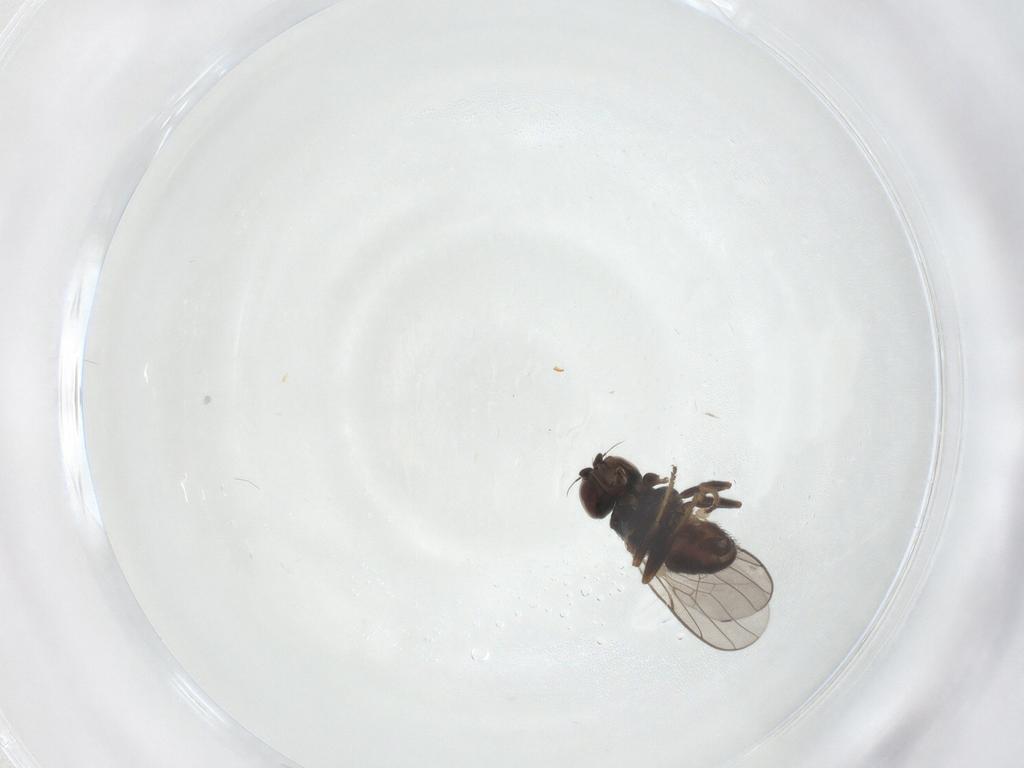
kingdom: Animalia
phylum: Arthropoda
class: Insecta
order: Diptera
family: Chloropidae
